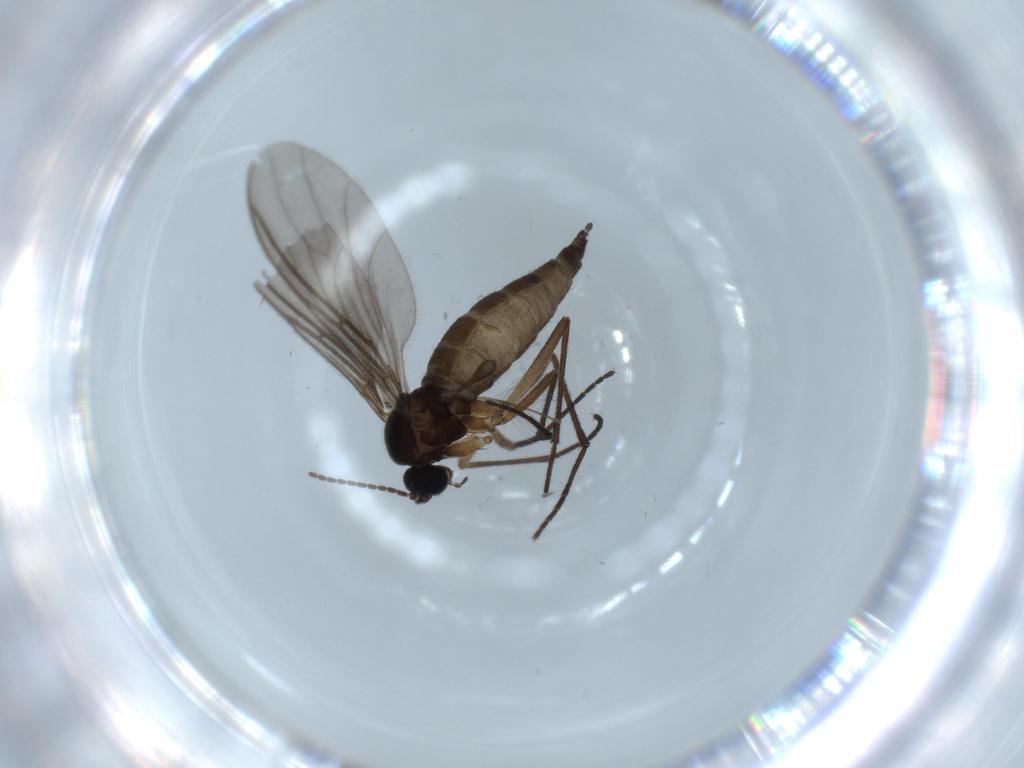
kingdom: Animalia
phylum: Arthropoda
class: Insecta
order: Diptera
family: Sciaridae
